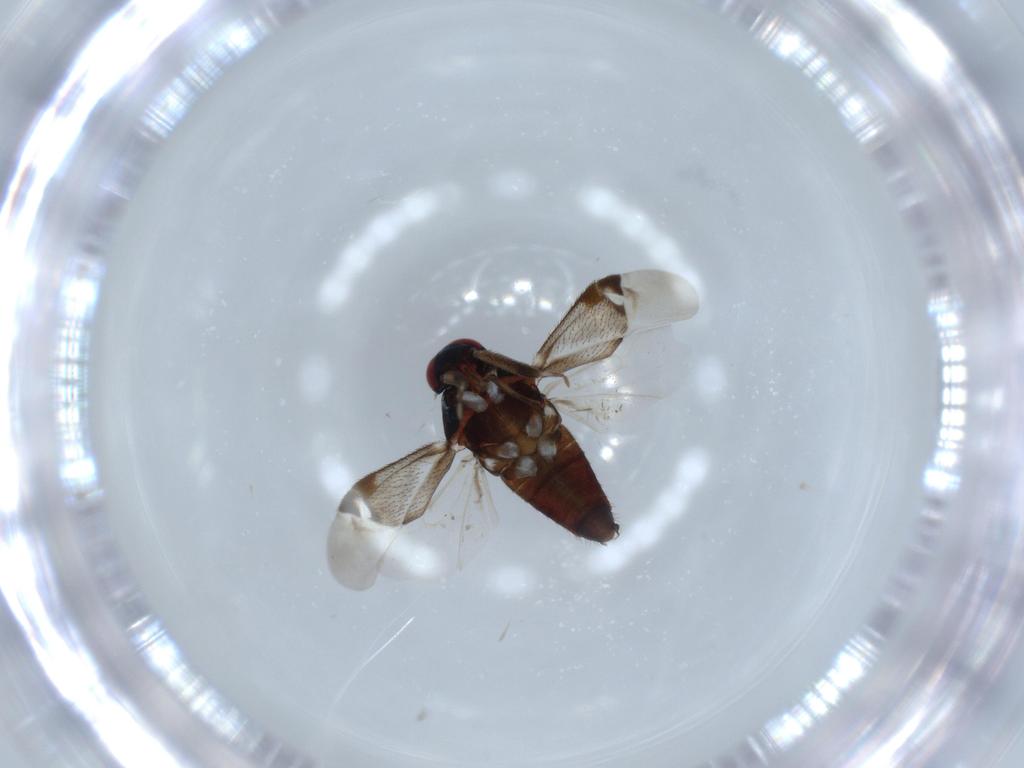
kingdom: Animalia
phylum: Arthropoda
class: Insecta
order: Hemiptera
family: Miridae
